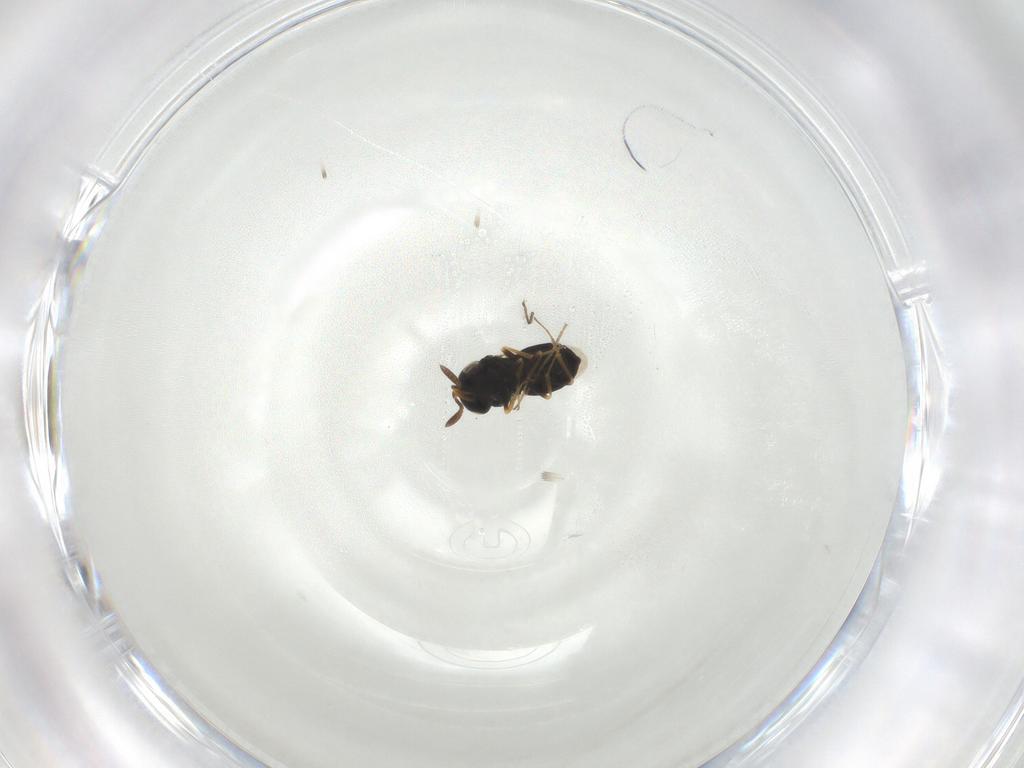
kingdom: Animalia
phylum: Arthropoda
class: Insecta
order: Hymenoptera
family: Scelionidae
